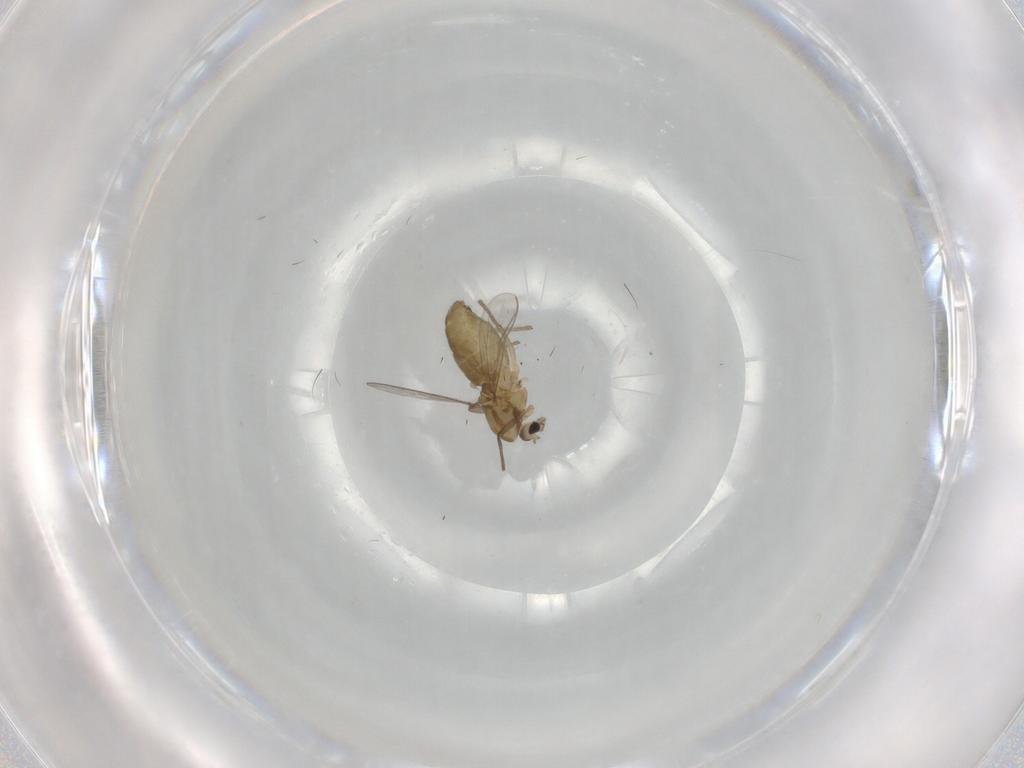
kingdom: Animalia
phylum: Arthropoda
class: Insecta
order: Diptera
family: Chironomidae
